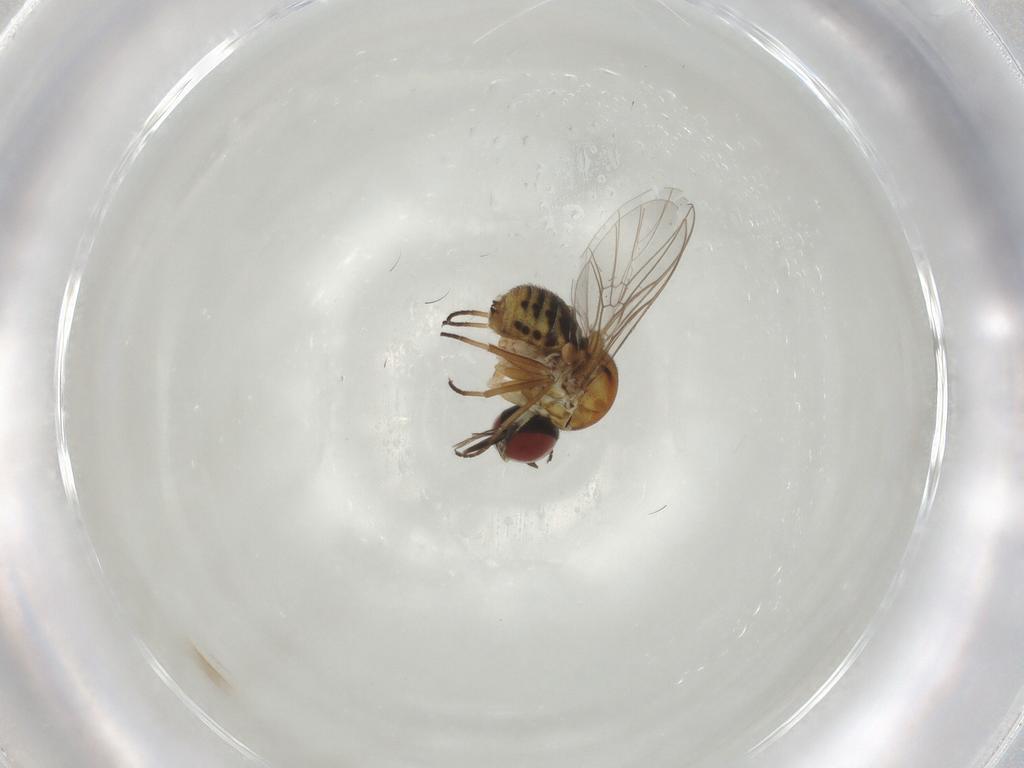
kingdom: Animalia
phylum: Arthropoda
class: Insecta
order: Diptera
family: Bombyliidae
